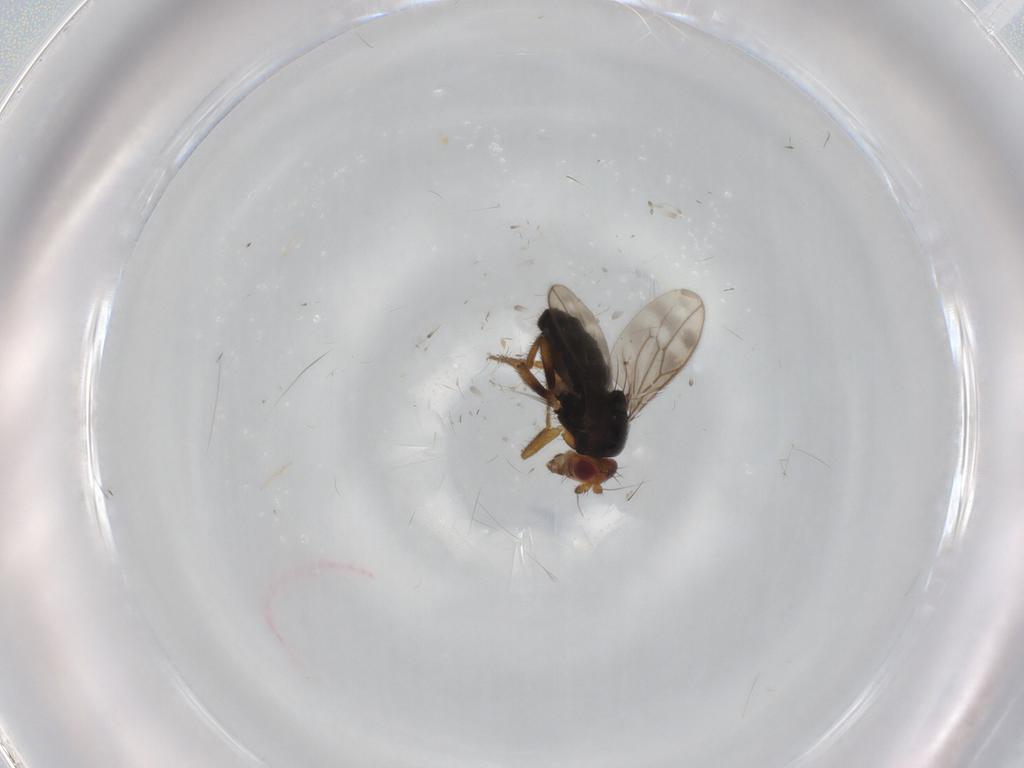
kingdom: Animalia
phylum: Arthropoda
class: Insecta
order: Diptera
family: Sphaeroceridae
